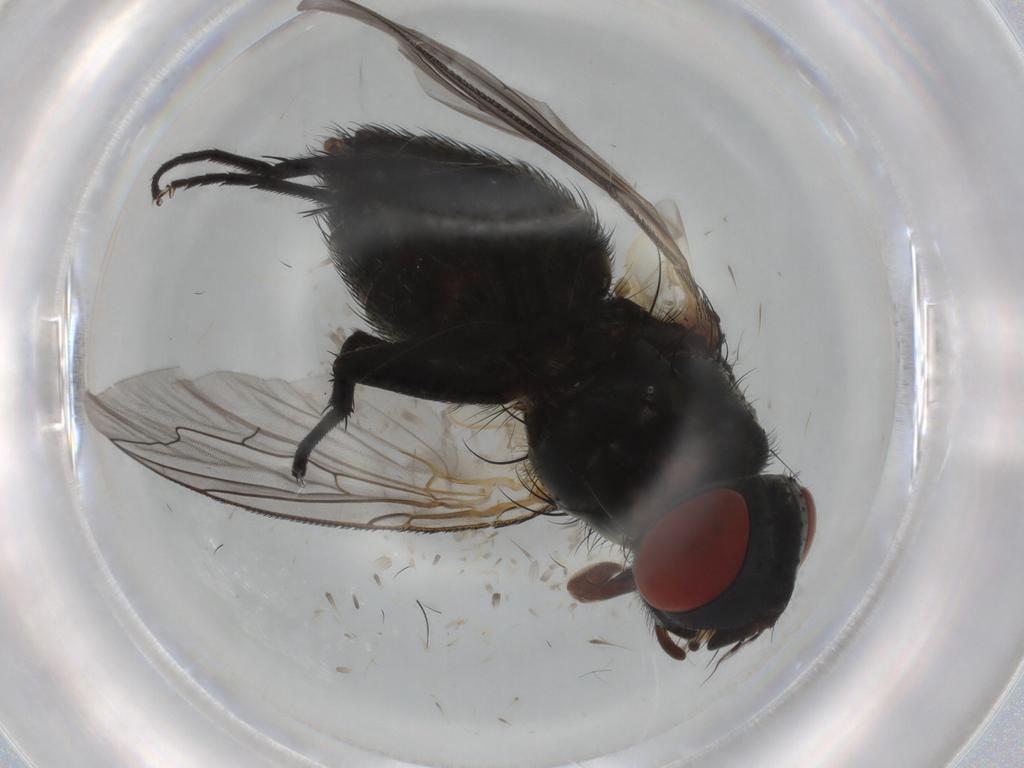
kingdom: Animalia
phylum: Arthropoda
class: Insecta
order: Diptera
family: Sarcophagidae
